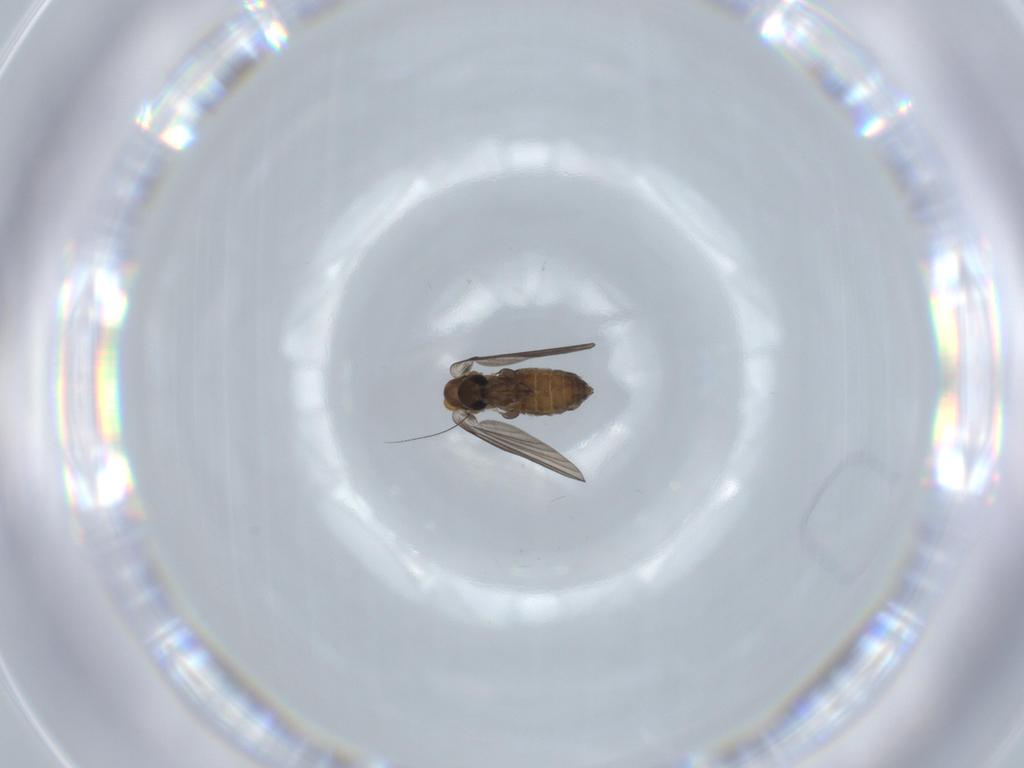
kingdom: Animalia
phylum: Arthropoda
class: Insecta
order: Diptera
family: Psychodidae
